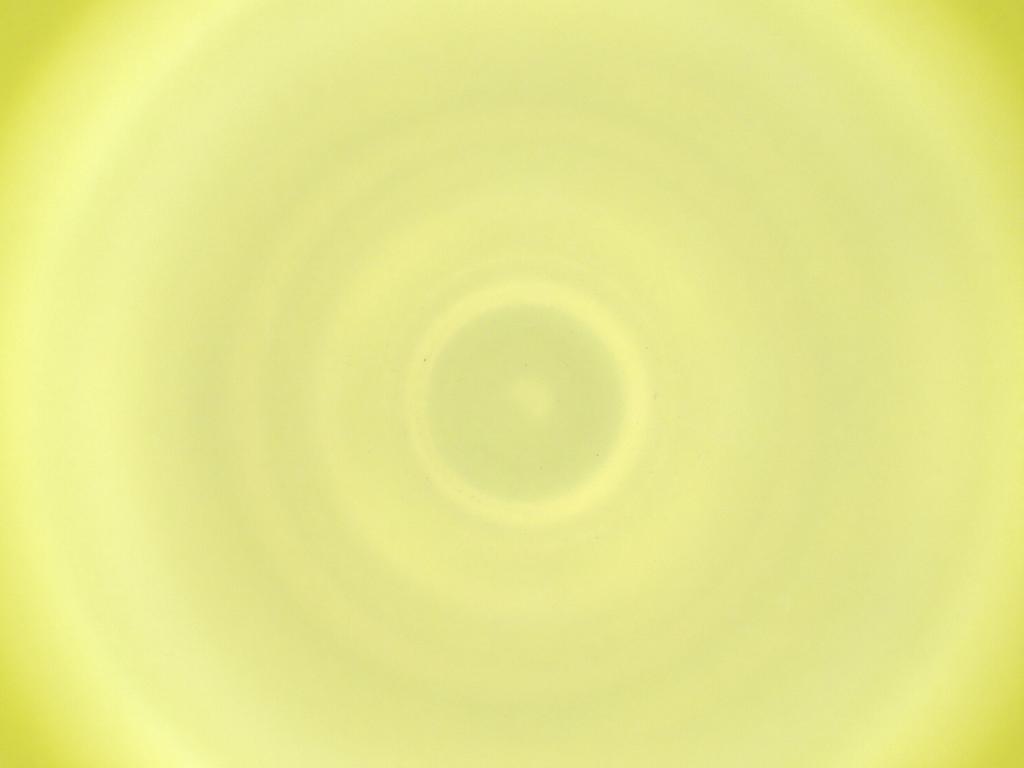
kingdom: Animalia
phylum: Arthropoda
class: Insecta
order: Diptera
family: Cecidomyiidae
